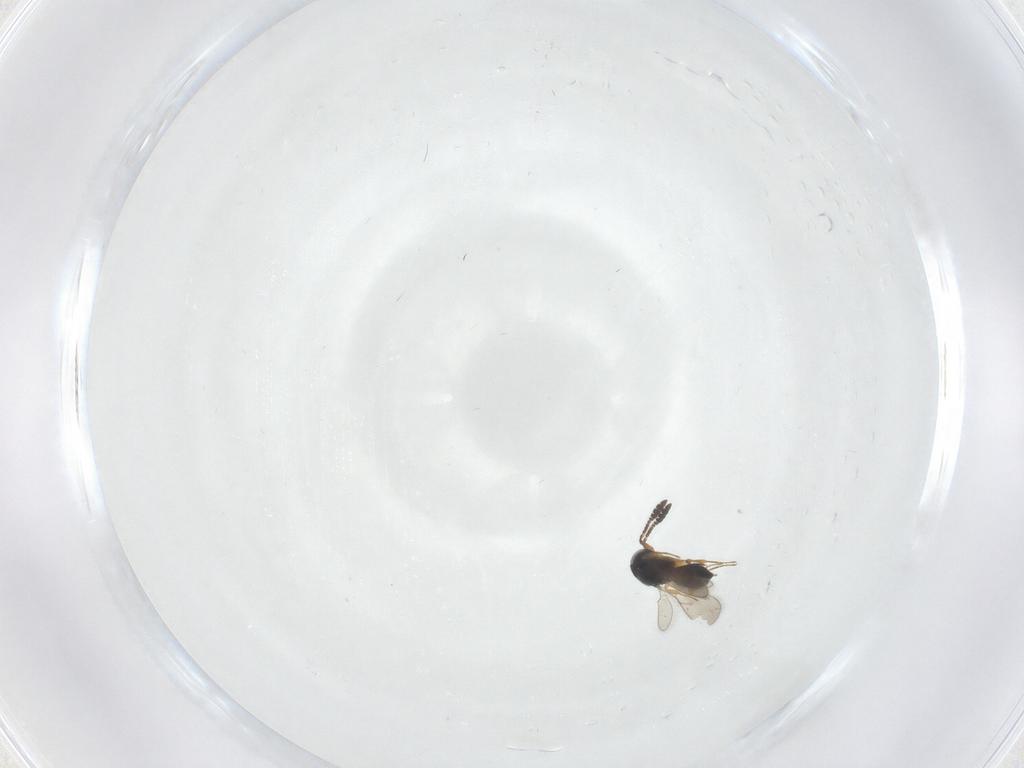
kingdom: Animalia
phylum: Arthropoda
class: Insecta
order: Hymenoptera
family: Scelionidae
